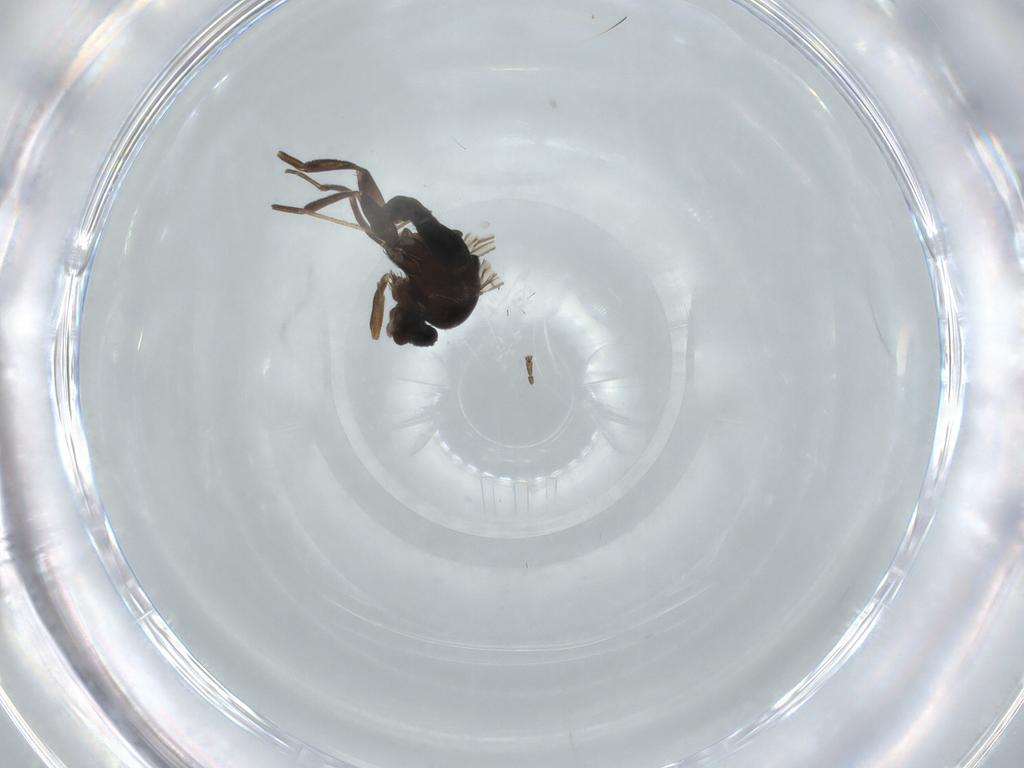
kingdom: Animalia
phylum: Arthropoda
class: Insecta
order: Diptera
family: Phoridae
